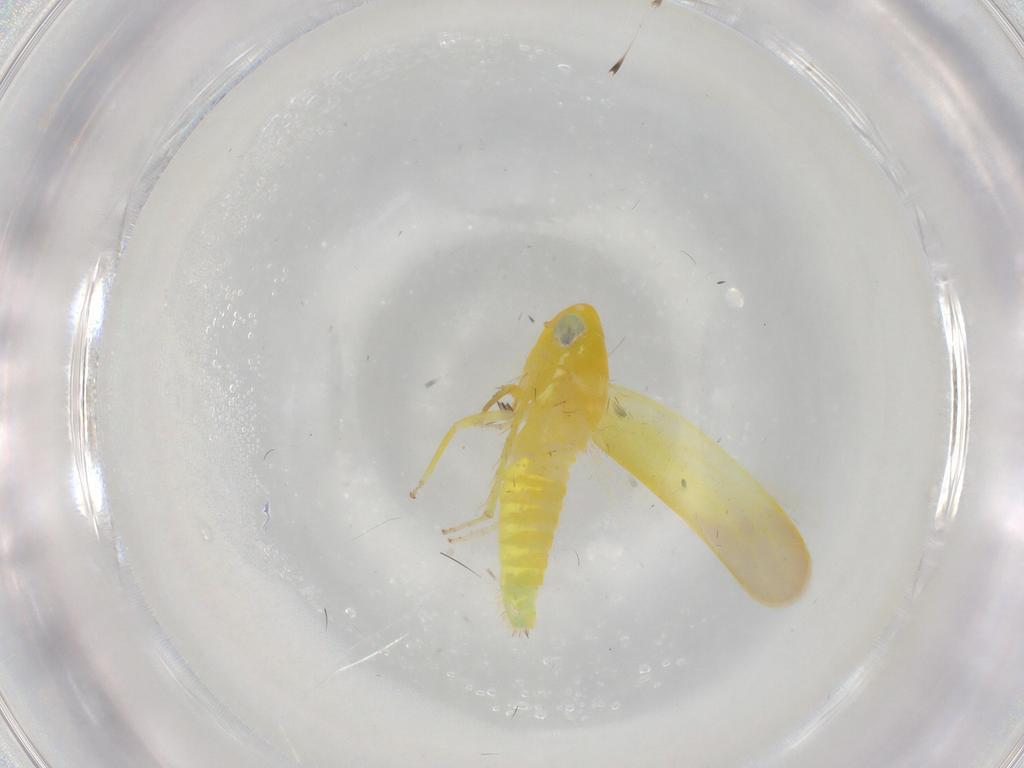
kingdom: Animalia
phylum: Arthropoda
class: Insecta
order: Hemiptera
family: Cicadellidae
